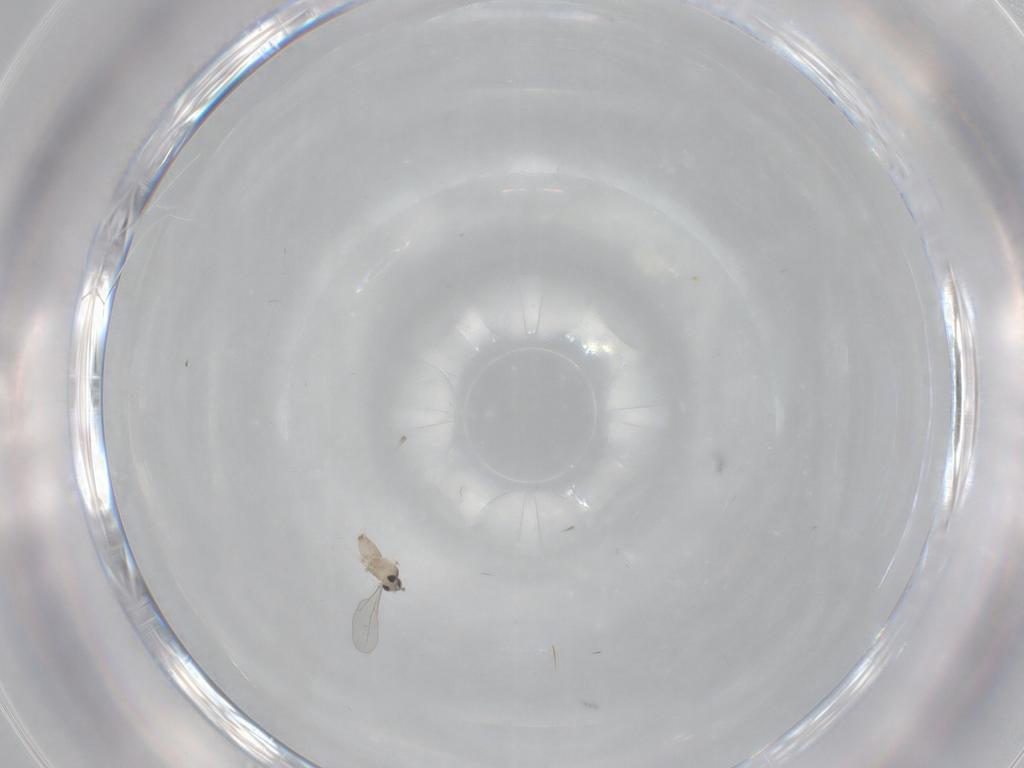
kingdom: Animalia
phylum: Arthropoda
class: Insecta
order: Diptera
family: Cecidomyiidae
